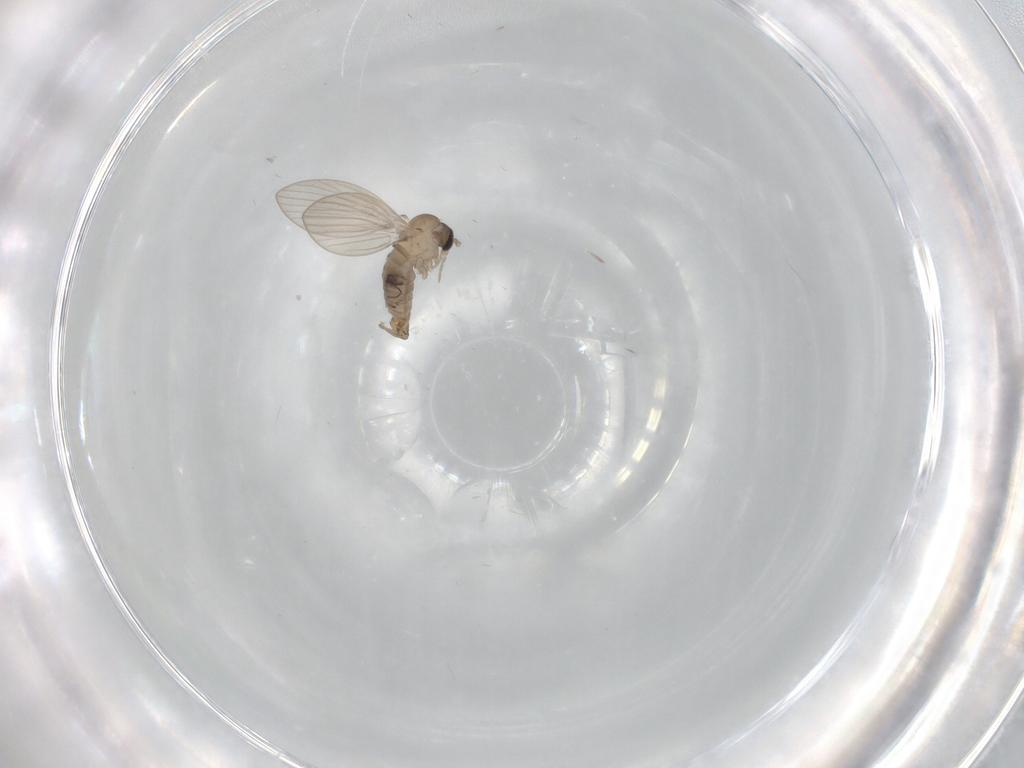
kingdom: Animalia
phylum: Arthropoda
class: Insecta
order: Diptera
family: Psychodidae
